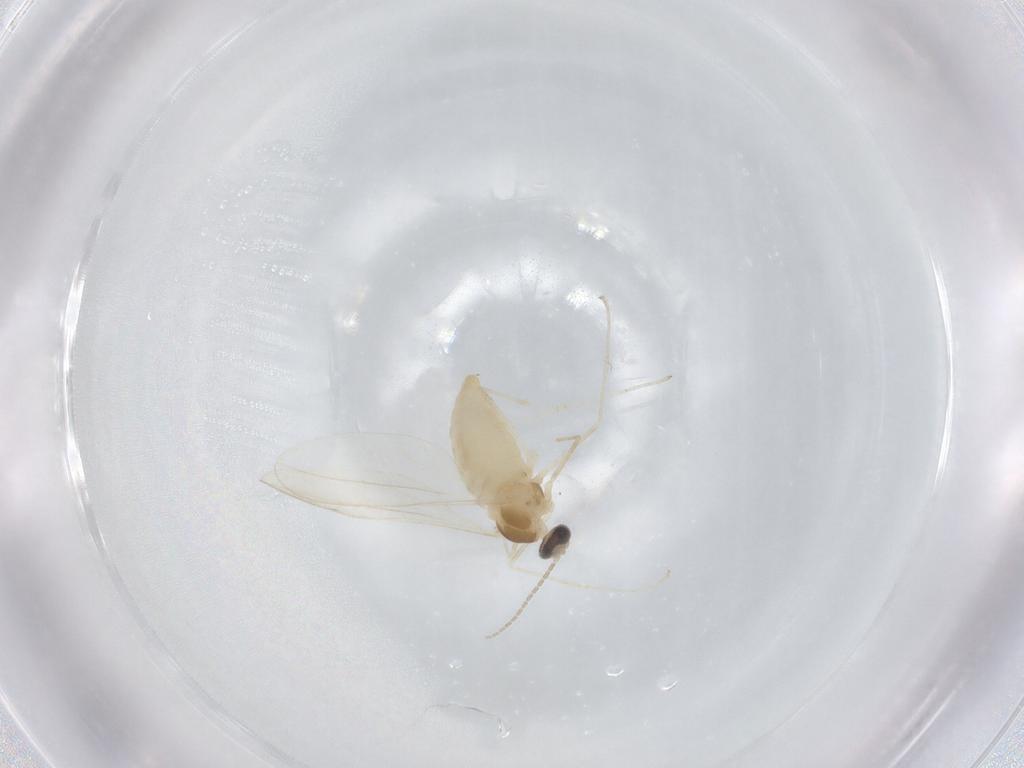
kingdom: Animalia
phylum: Arthropoda
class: Insecta
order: Diptera
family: Cecidomyiidae
